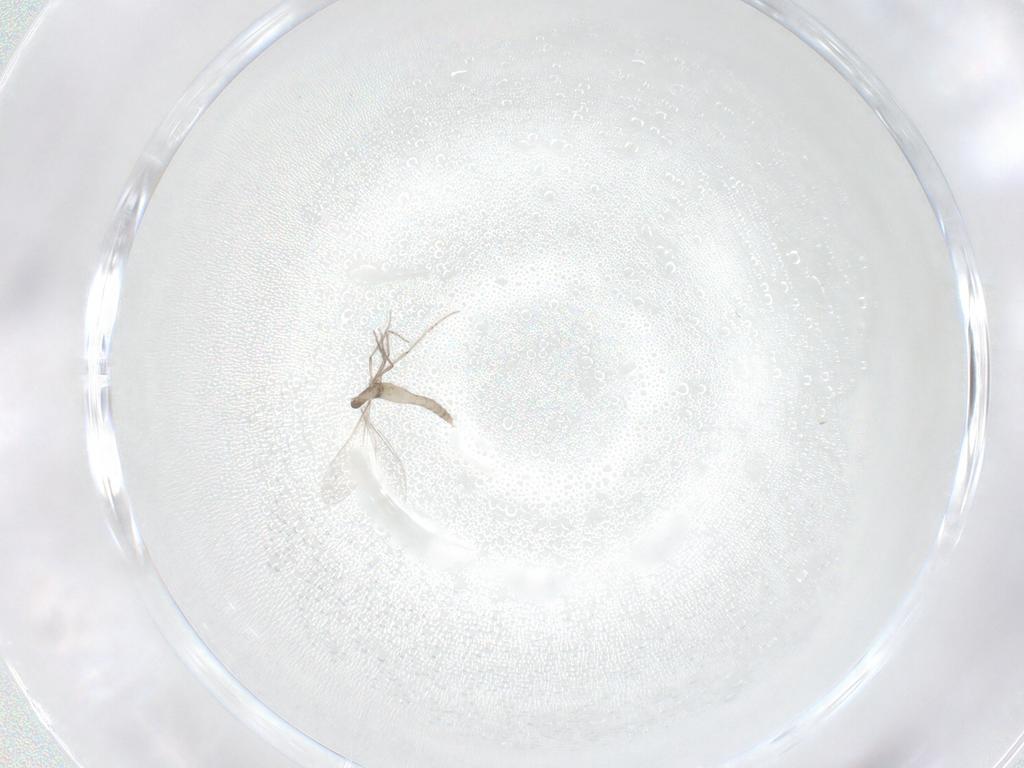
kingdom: Animalia
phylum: Arthropoda
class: Insecta
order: Diptera
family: Cecidomyiidae
